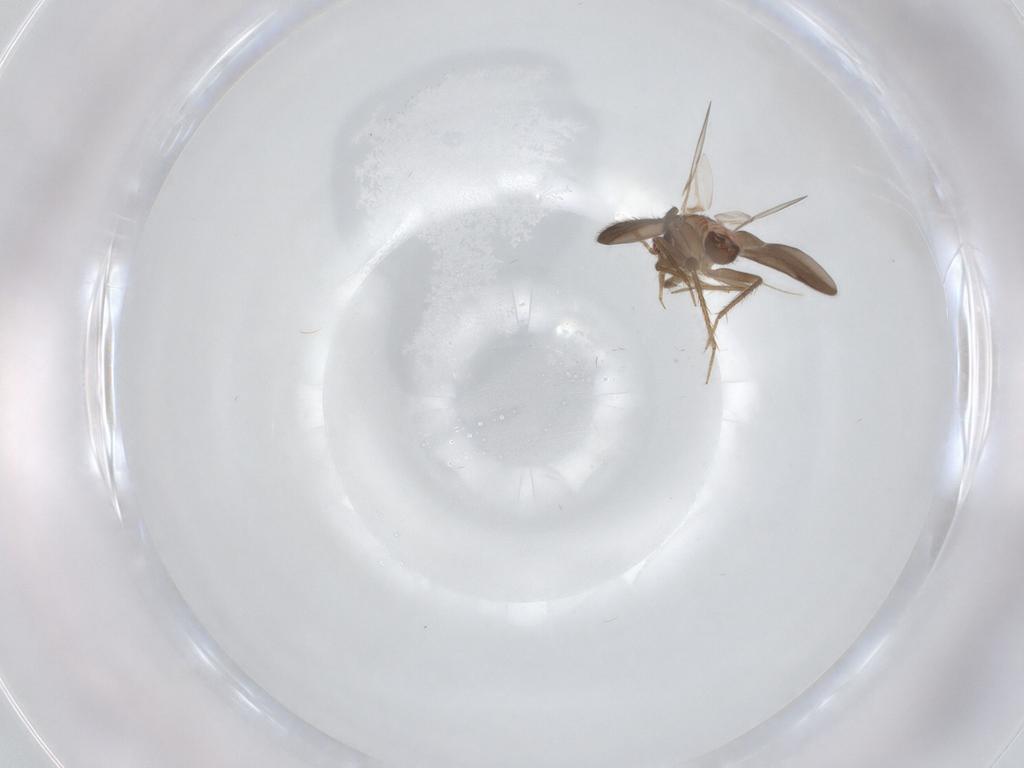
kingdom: Animalia
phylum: Arthropoda
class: Insecta
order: Hemiptera
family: Ceratocombidae
